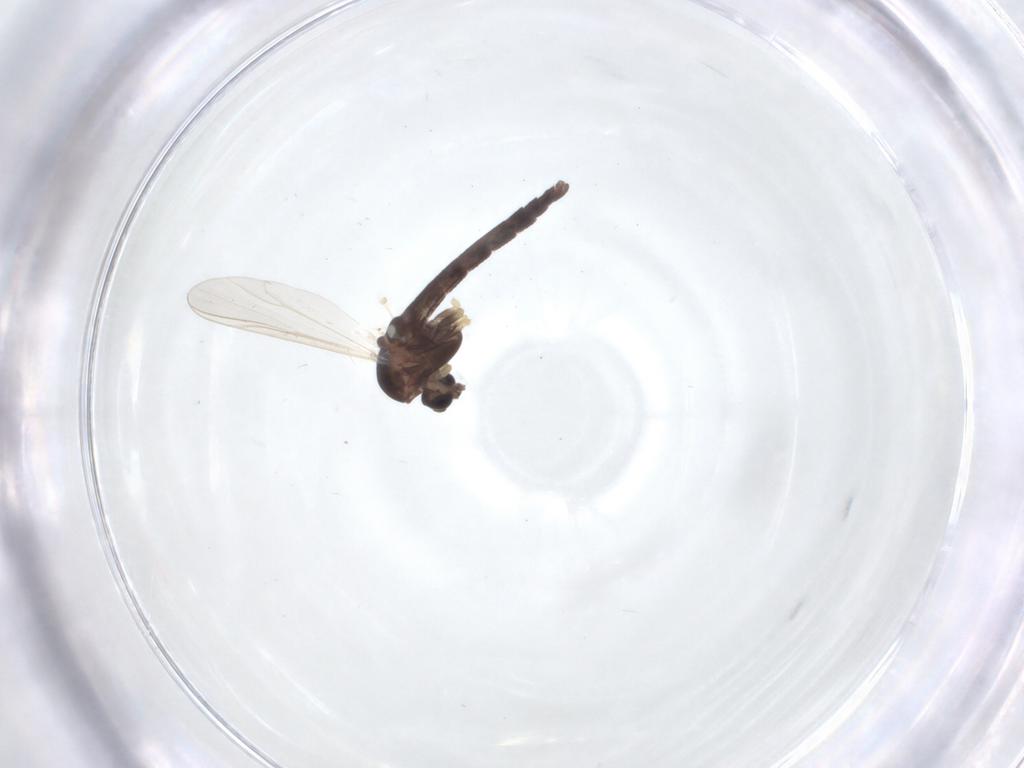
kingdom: Animalia
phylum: Arthropoda
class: Insecta
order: Diptera
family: Chironomidae
